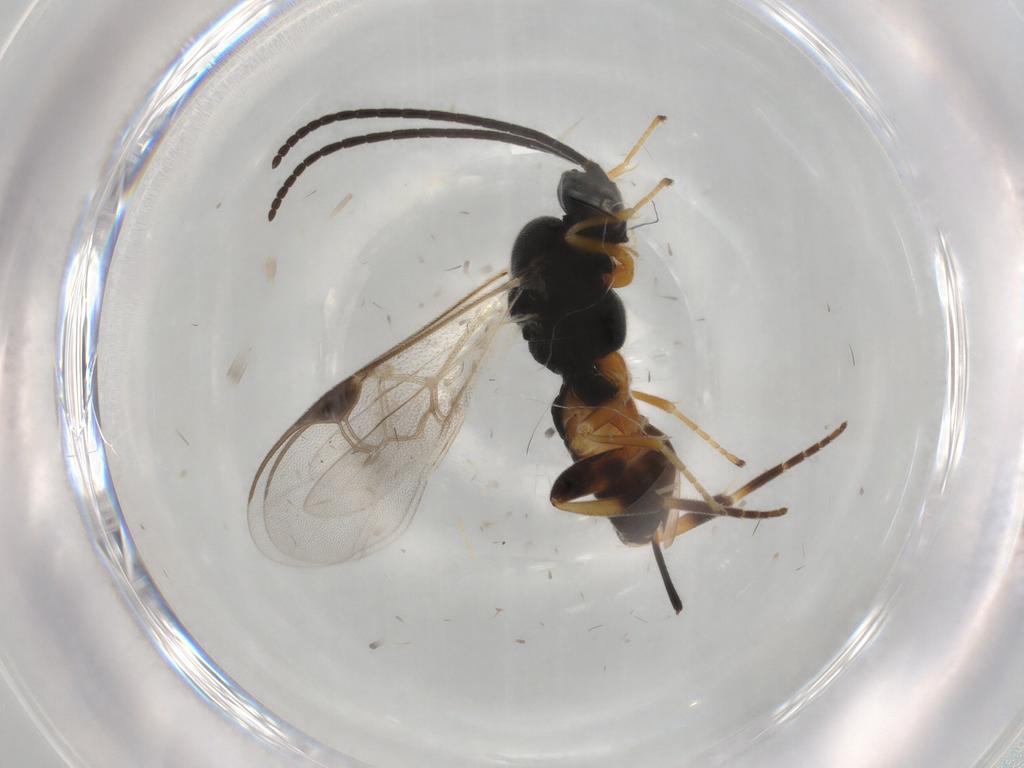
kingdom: Animalia
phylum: Arthropoda
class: Insecta
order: Hymenoptera
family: Braconidae
